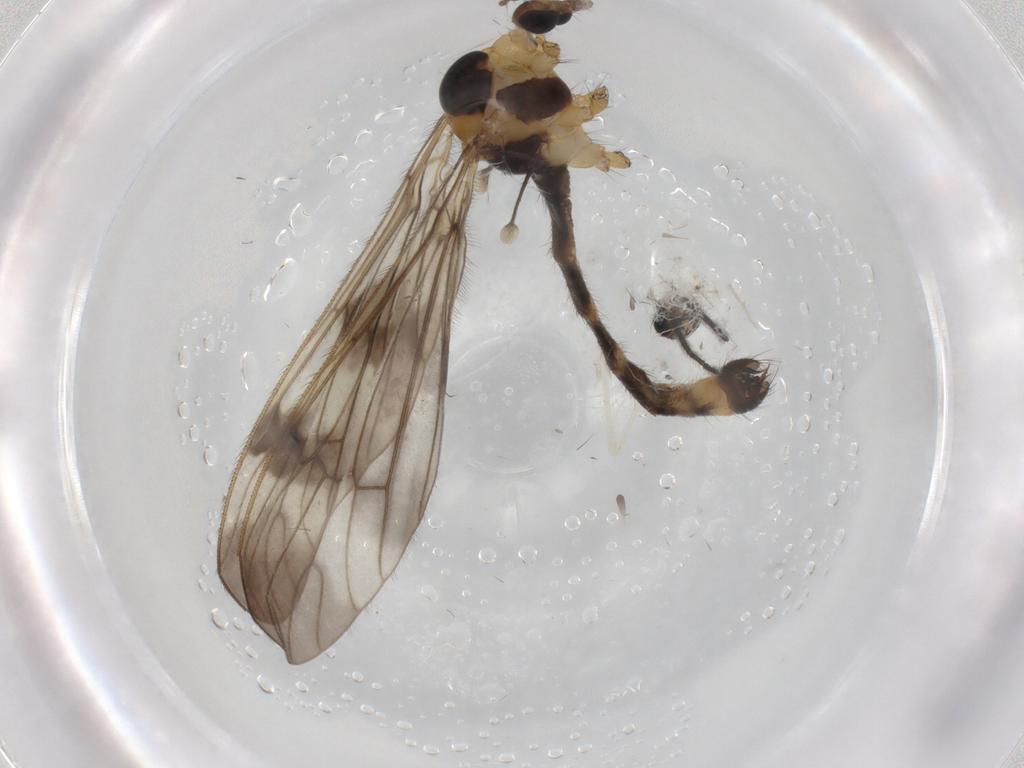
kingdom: Animalia
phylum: Arthropoda
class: Insecta
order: Diptera
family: Limoniidae
